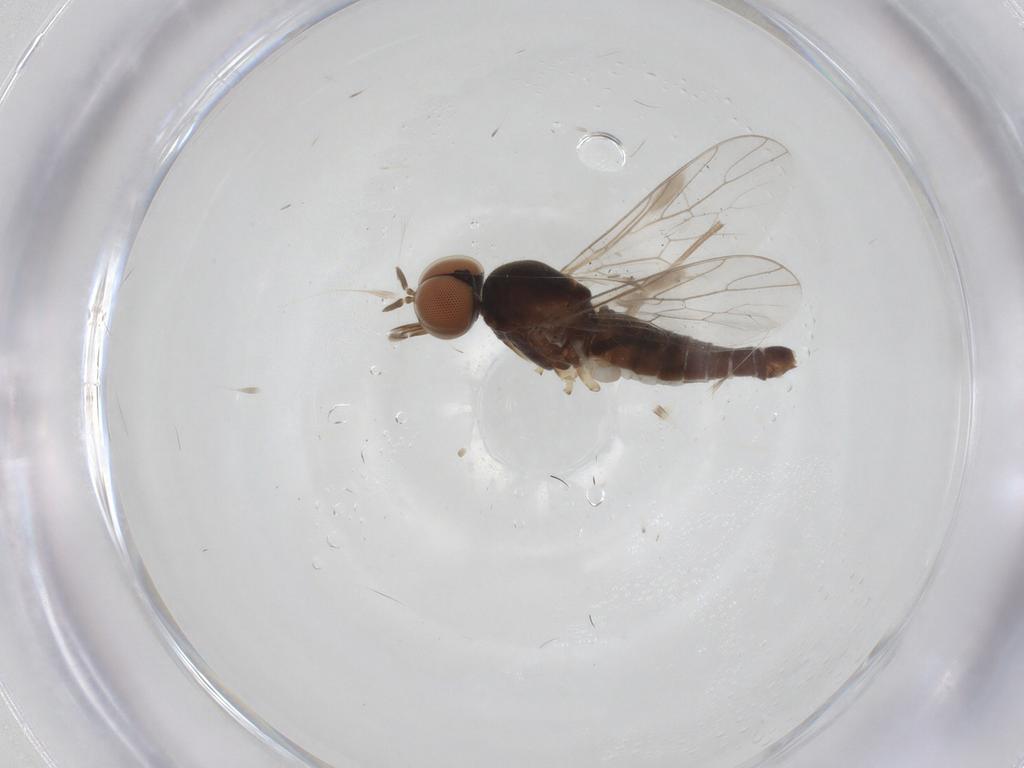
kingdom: Animalia
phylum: Arthropoda
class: Insecta
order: Diptera
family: Scenopinidae
